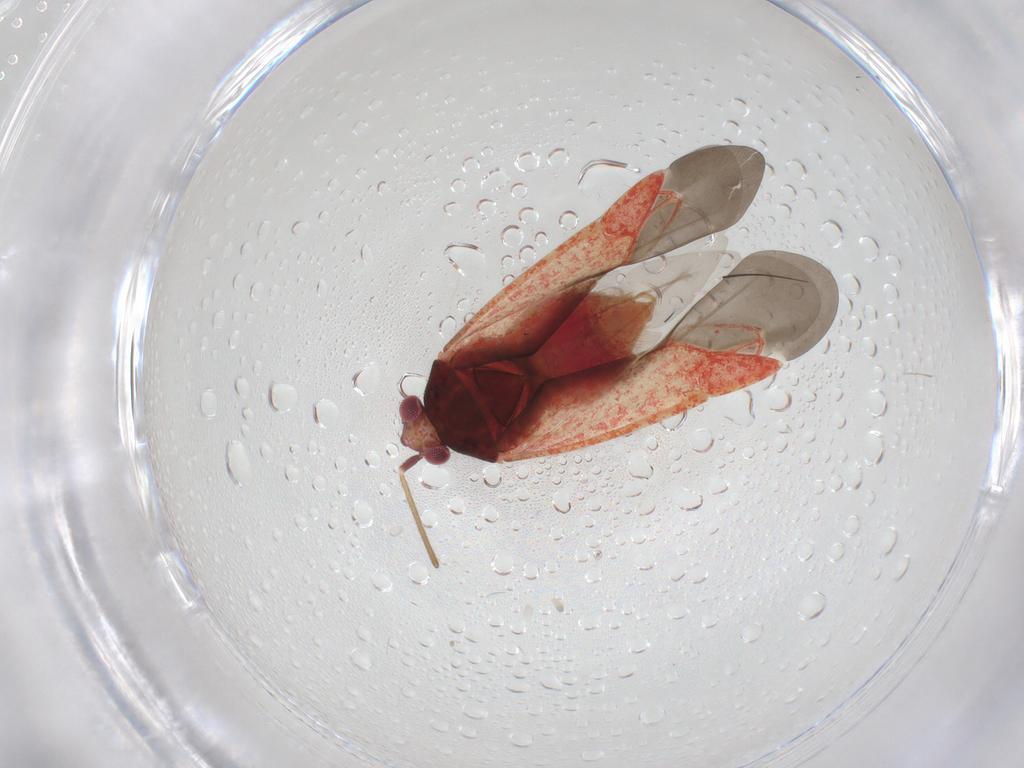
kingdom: Animalia
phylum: Arthropoda
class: Insecta
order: Hemiptera
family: Miridae
